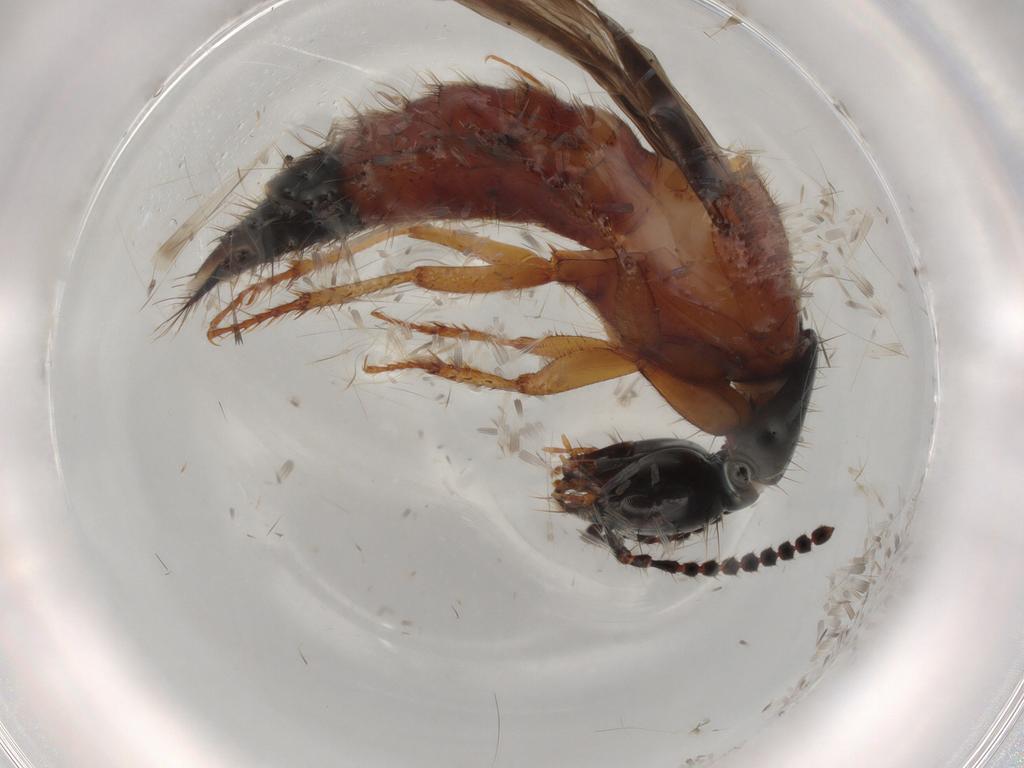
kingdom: Animalia
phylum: Arthropoda
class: Insecta
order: Coleoptera
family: Staphylinidae
